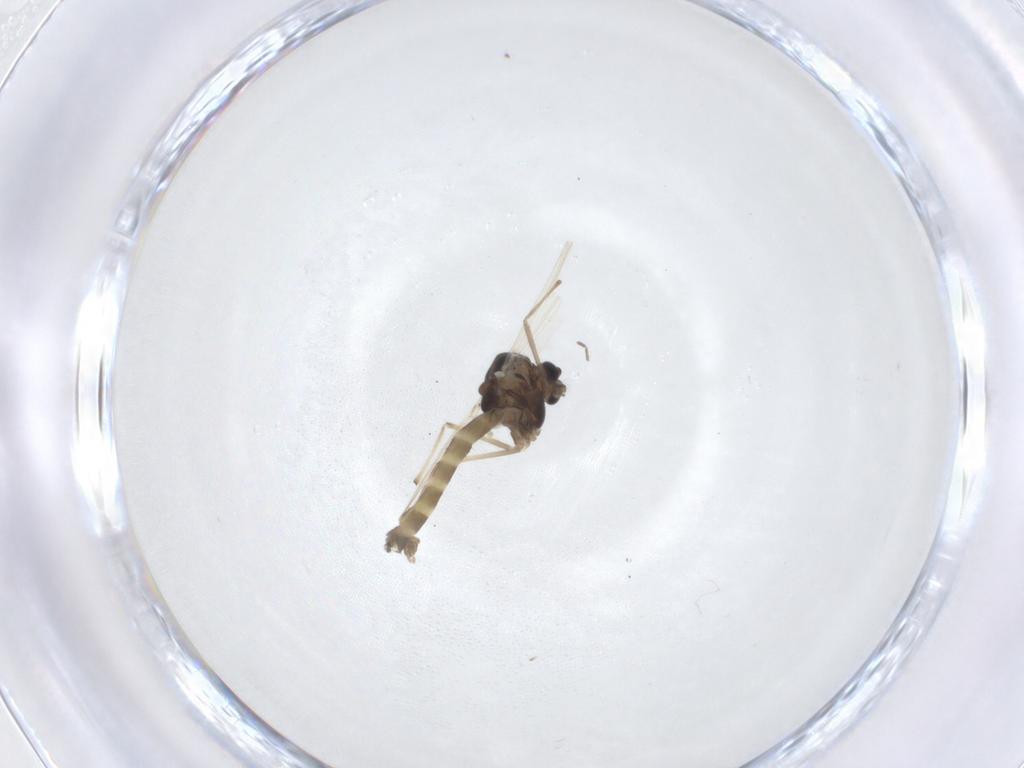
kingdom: Animalia
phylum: Arthropoda
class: Insecta
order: Diptera
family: Chironomidae
